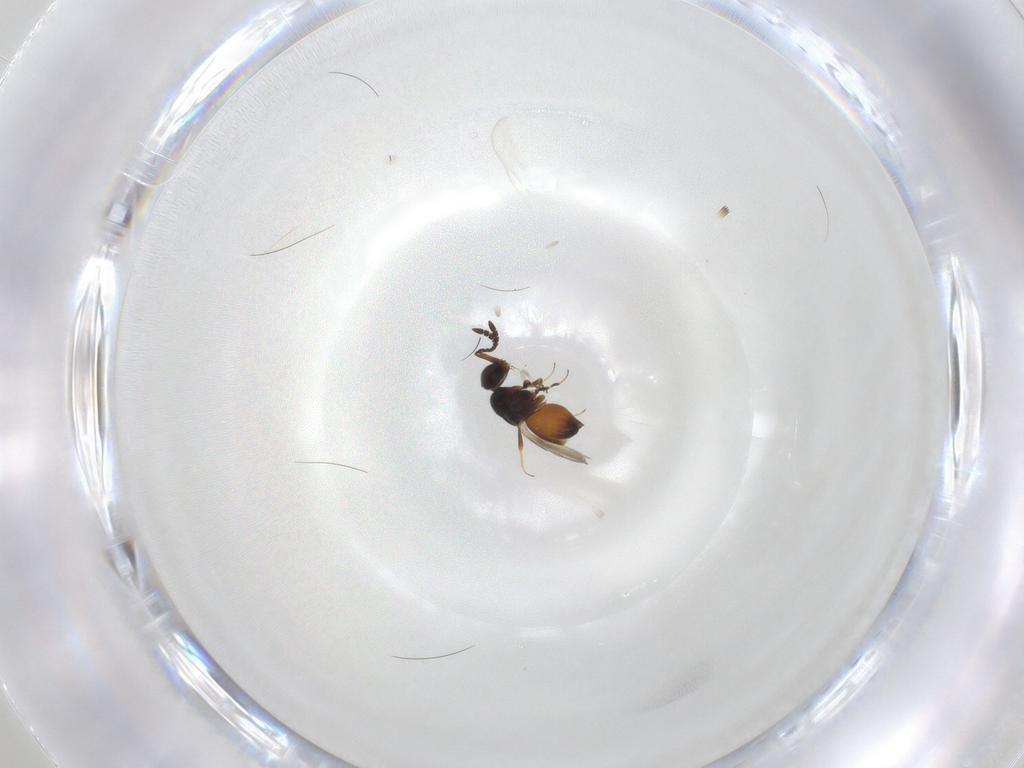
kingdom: Animalia
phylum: Arthropoda
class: Insecta
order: Hymenoptera
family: Ceraphronidae
